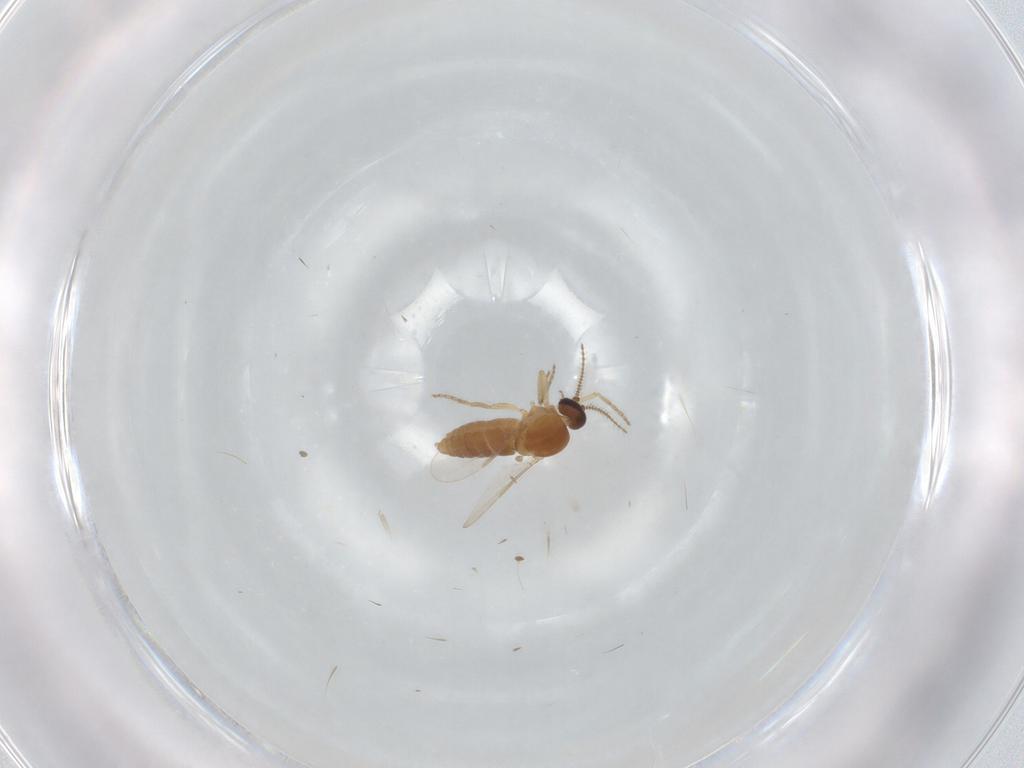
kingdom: Animalia
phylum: Arthropoda
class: Insecta
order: Diptera
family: Ceratopogonidae
